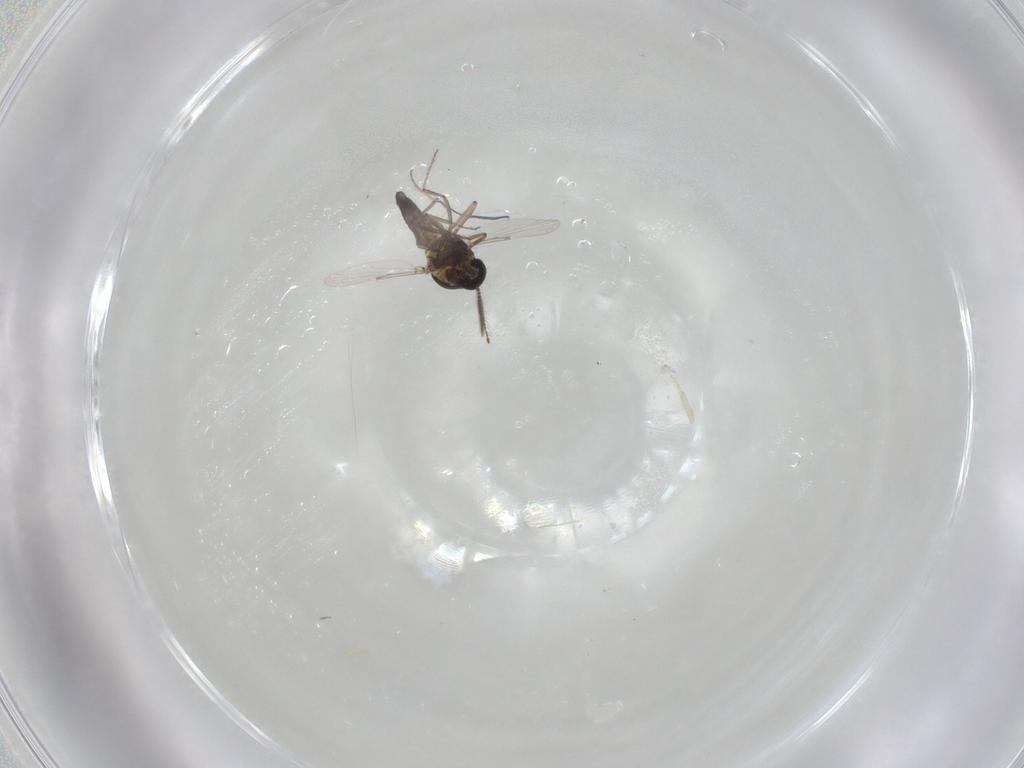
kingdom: Animalia
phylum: Arthropoda
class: Insecta
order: Diptera
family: Ceratopogonidae
